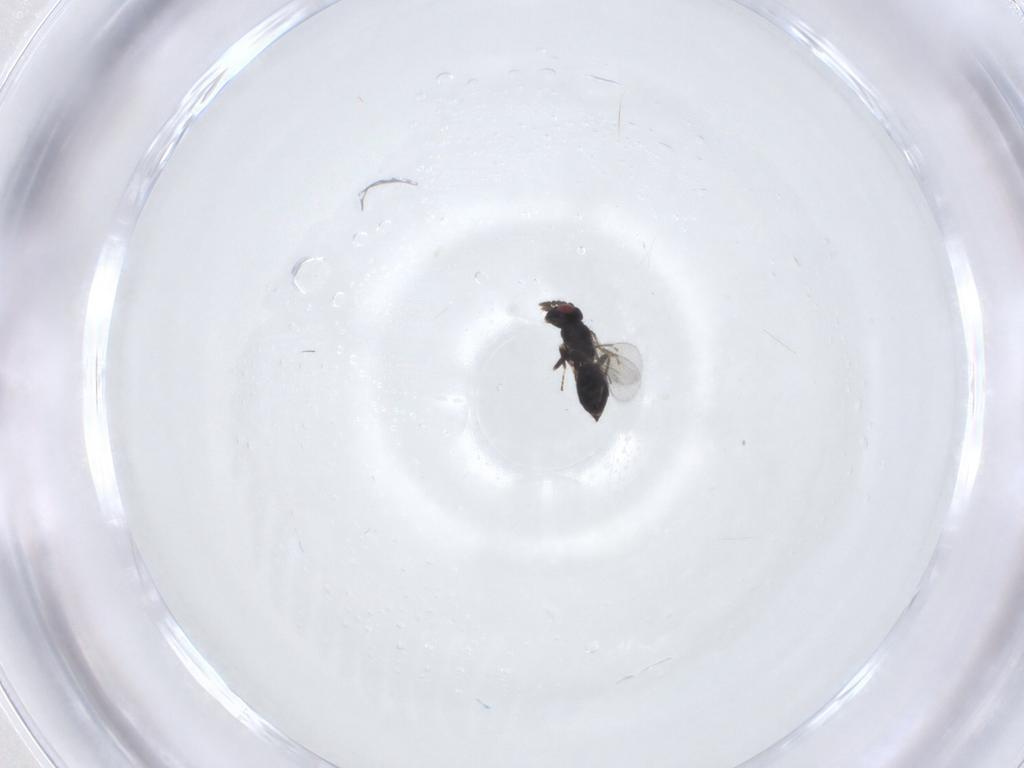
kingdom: Animalia
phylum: Arthropoda
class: Insecta
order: Hymenoptera
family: Eulophidae
